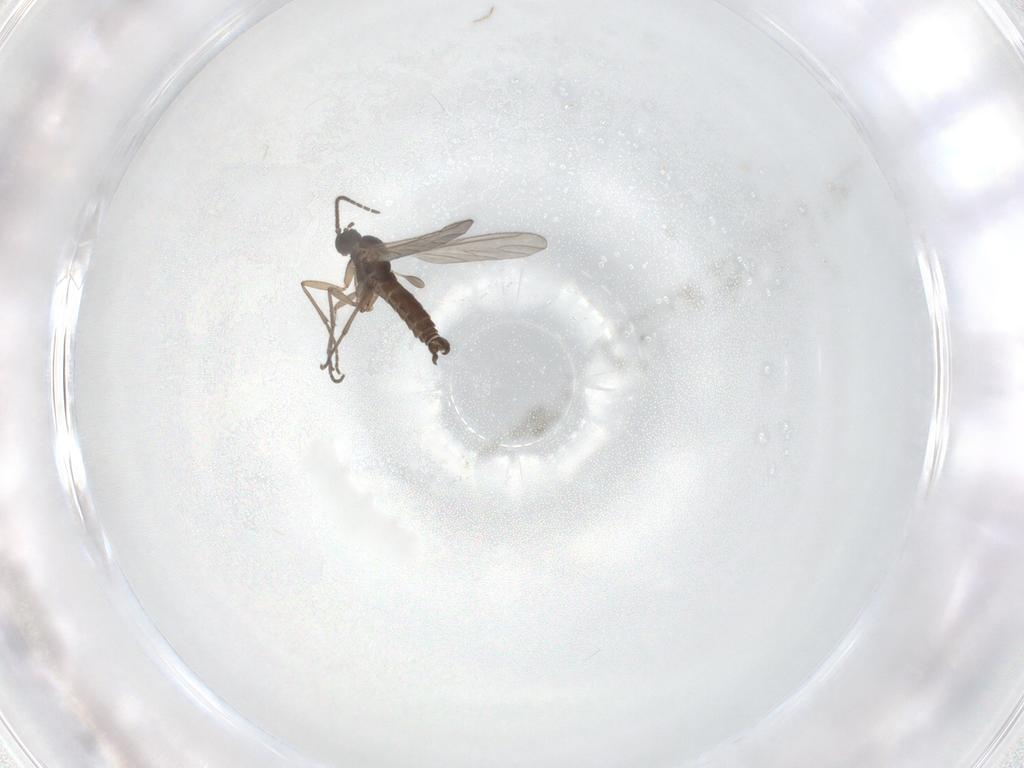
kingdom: Animalia
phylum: Arthropoda
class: Insecta
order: Diptera
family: Sciaridae
